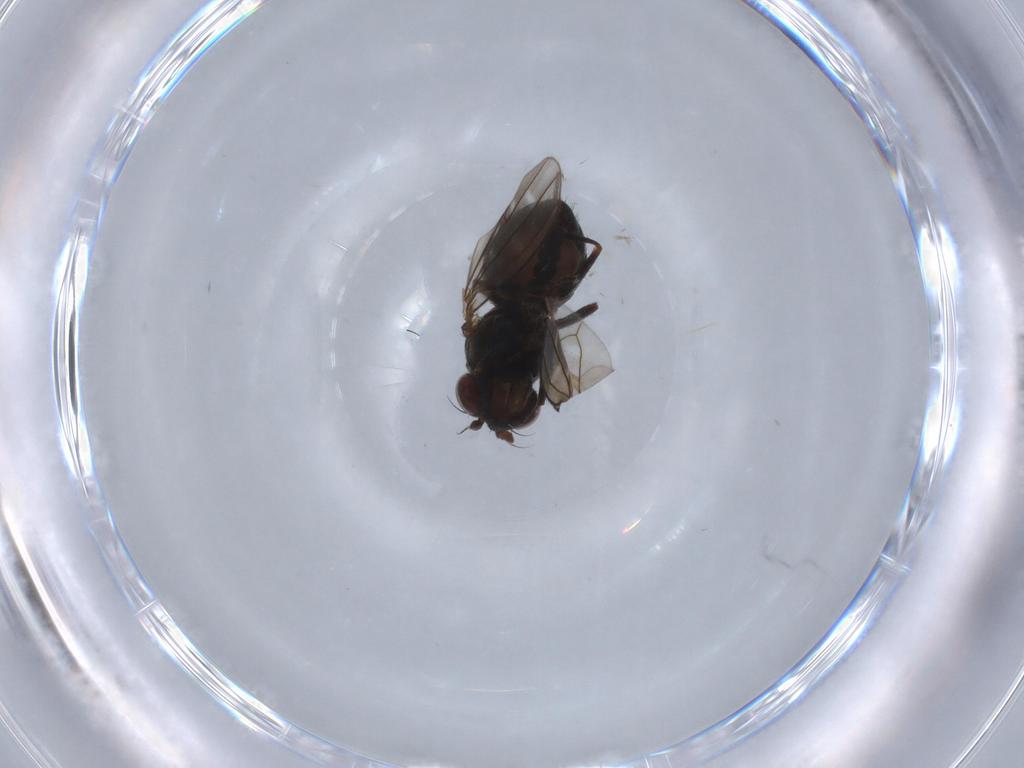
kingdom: Animalia
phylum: Arthropoda
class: Insecta
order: Diptera
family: Ephydridae
